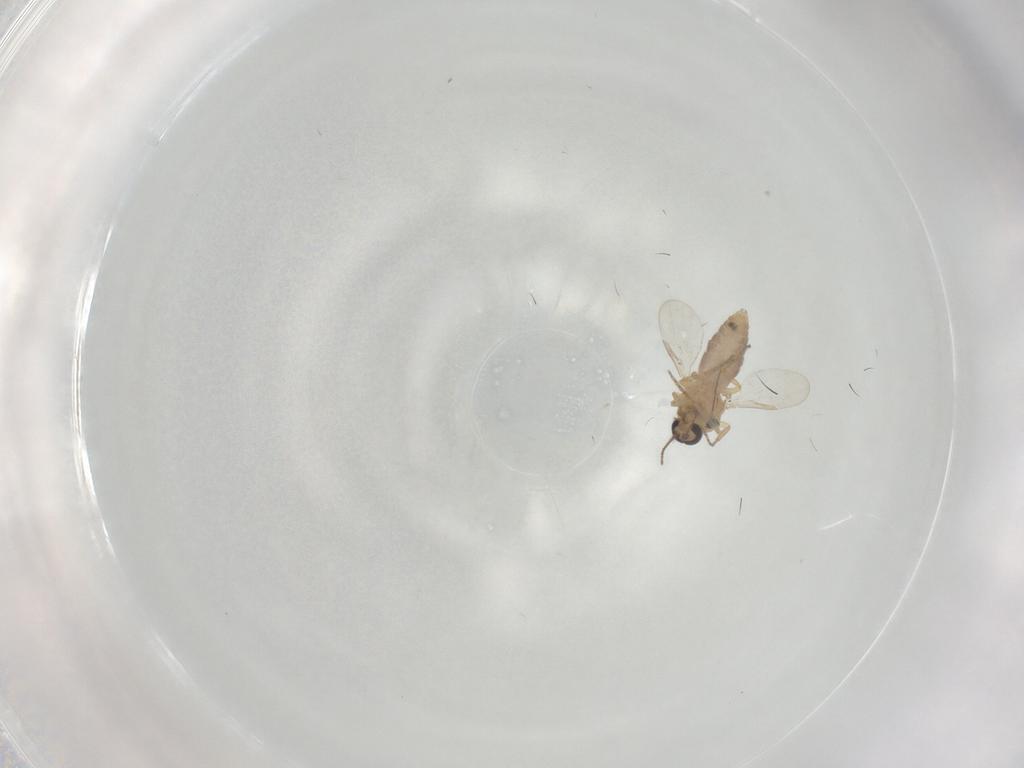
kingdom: Animalia
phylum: Arthropoda
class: Insecta
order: Diptera
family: Ceratopogonidae
